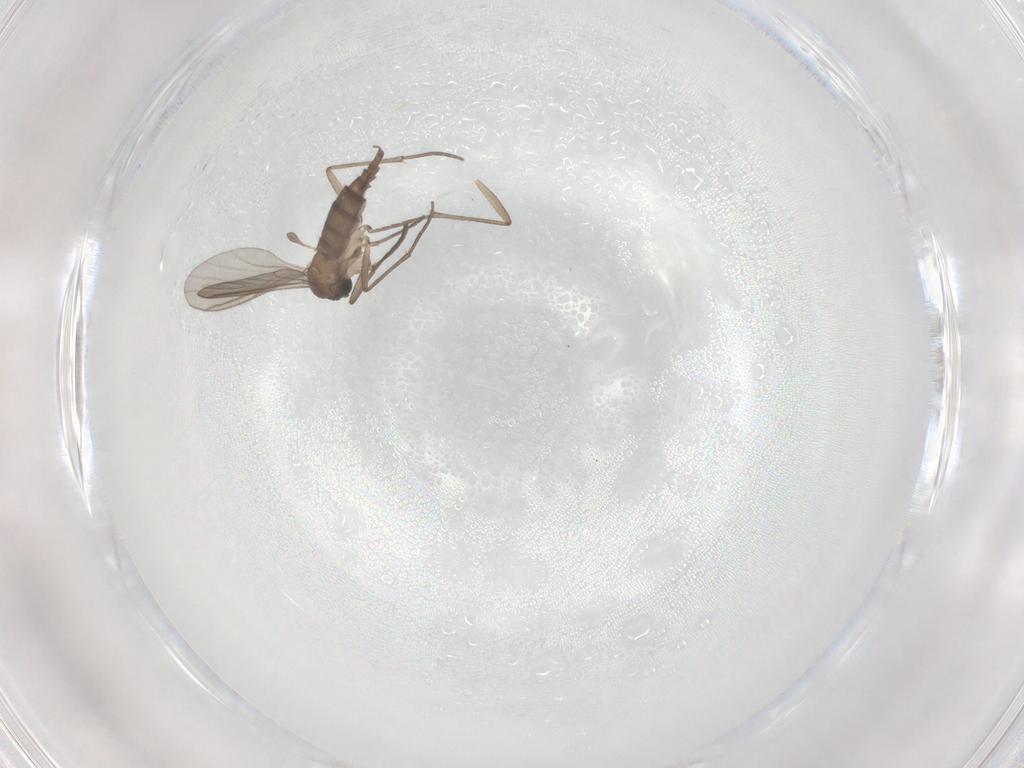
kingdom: Animalia
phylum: Arthropoda
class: Insecta
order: Diptera
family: Sciaridae
